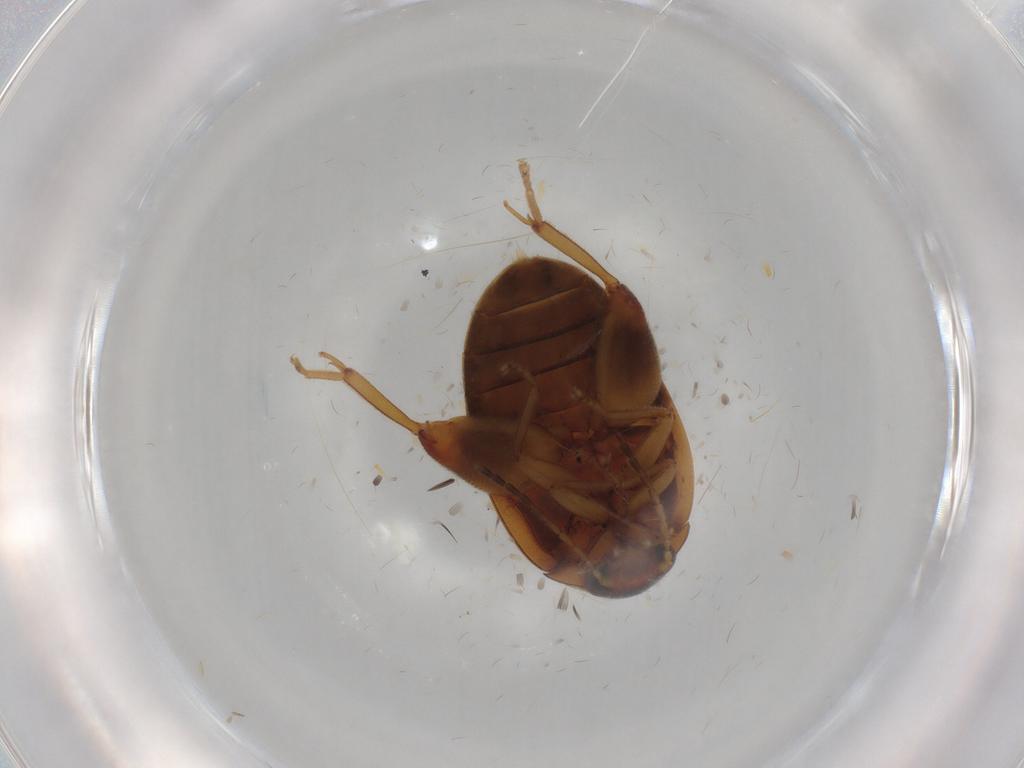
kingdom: Animalia
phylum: Arthropoda
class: Insecta
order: Coleoptera
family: Scirtidae
